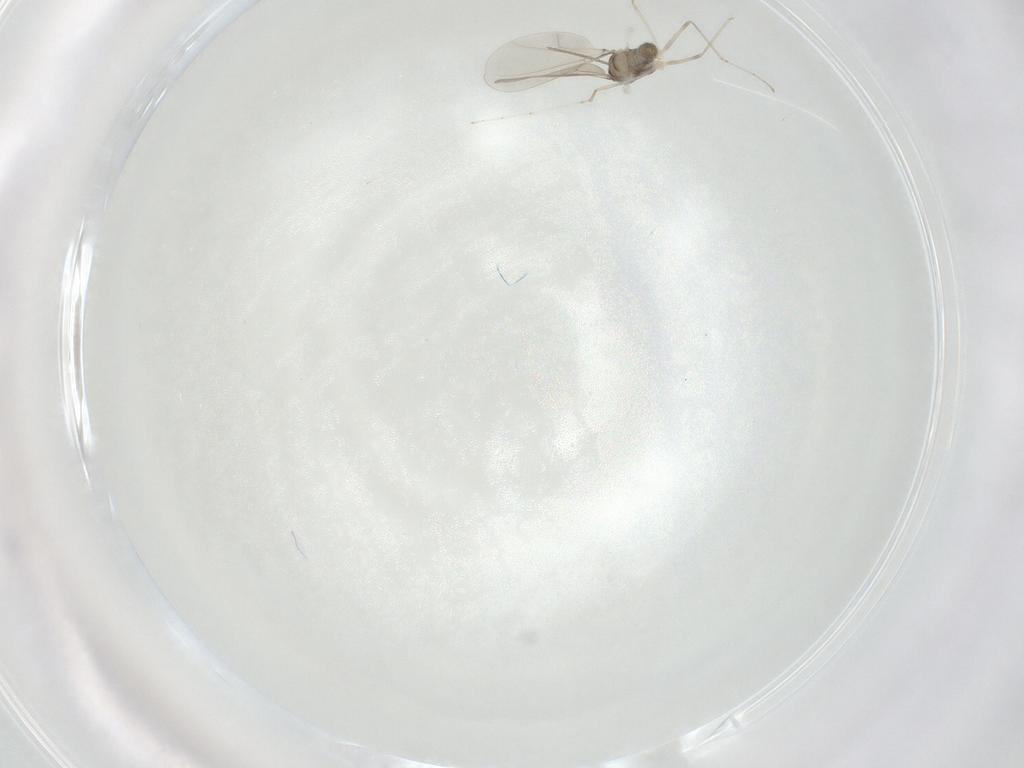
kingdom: Animalia
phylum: Arthropoda
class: Insecta
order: Diptera
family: Cecidomyiidae
